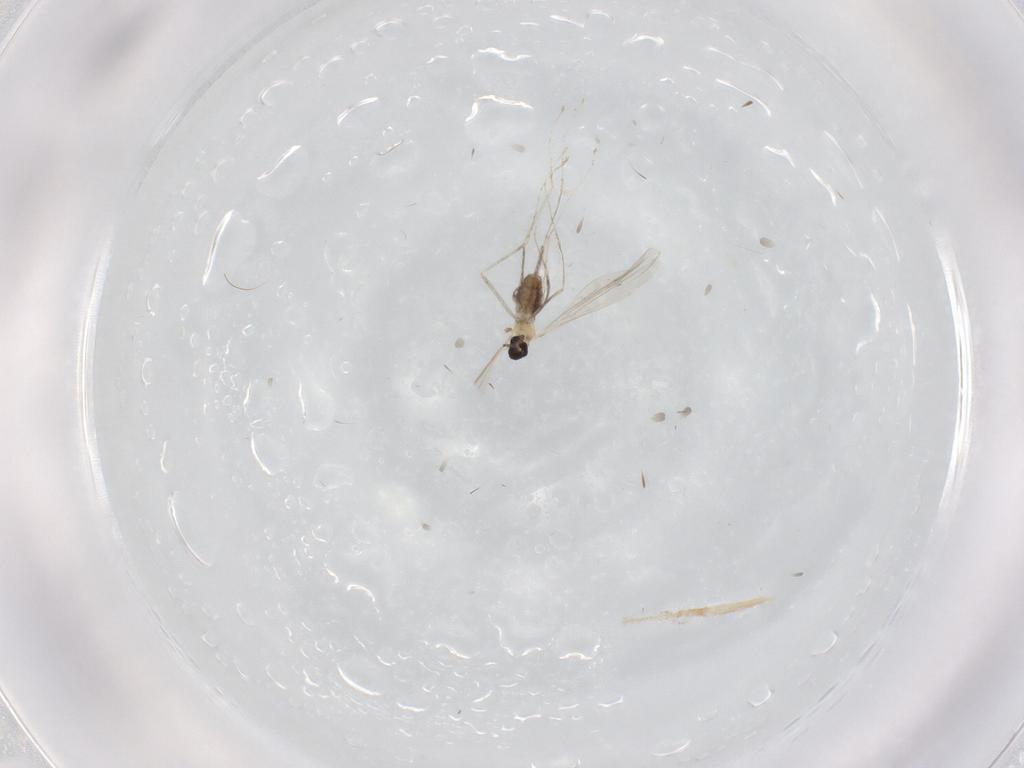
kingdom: Animalia
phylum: Arthropoda
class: Insecta
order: Diptera
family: Cecidomyiidae
